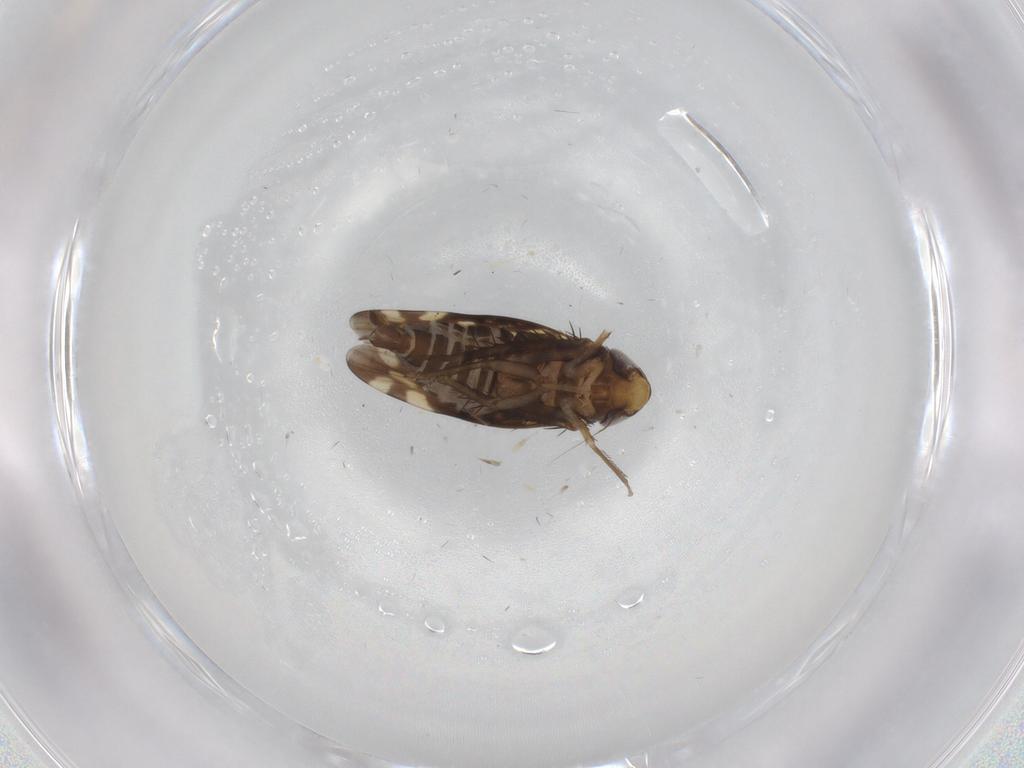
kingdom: Animalia
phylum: Arthropoda
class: Insecta
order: Hemiptera
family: Cicadellidae
